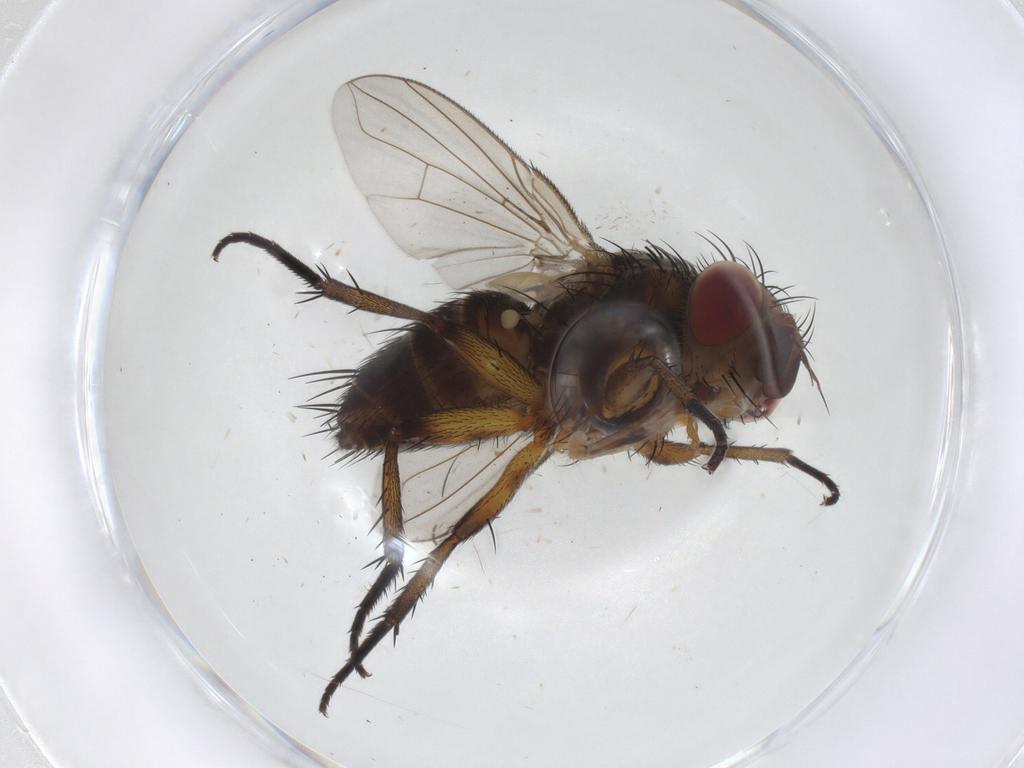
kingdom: Animalia
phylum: Arthropoda
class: Insecta
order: Diptera
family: Tachinidae
